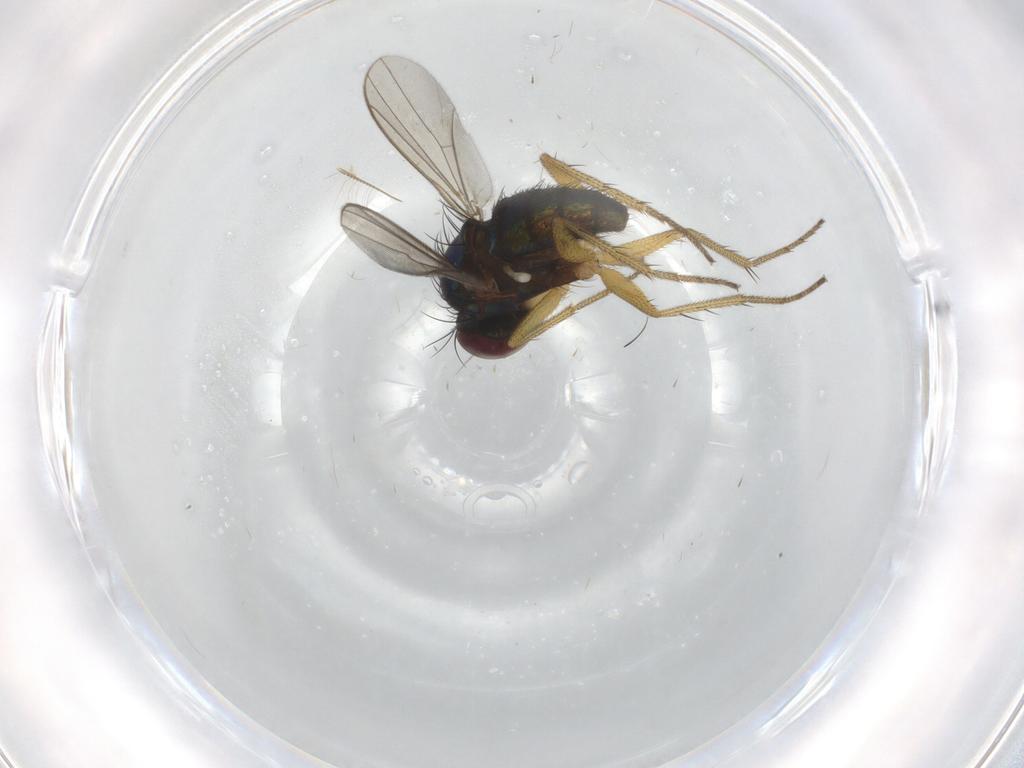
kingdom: Animalia
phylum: Arthropoda
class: Insecta
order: Diptera
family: Dolichopodidae
